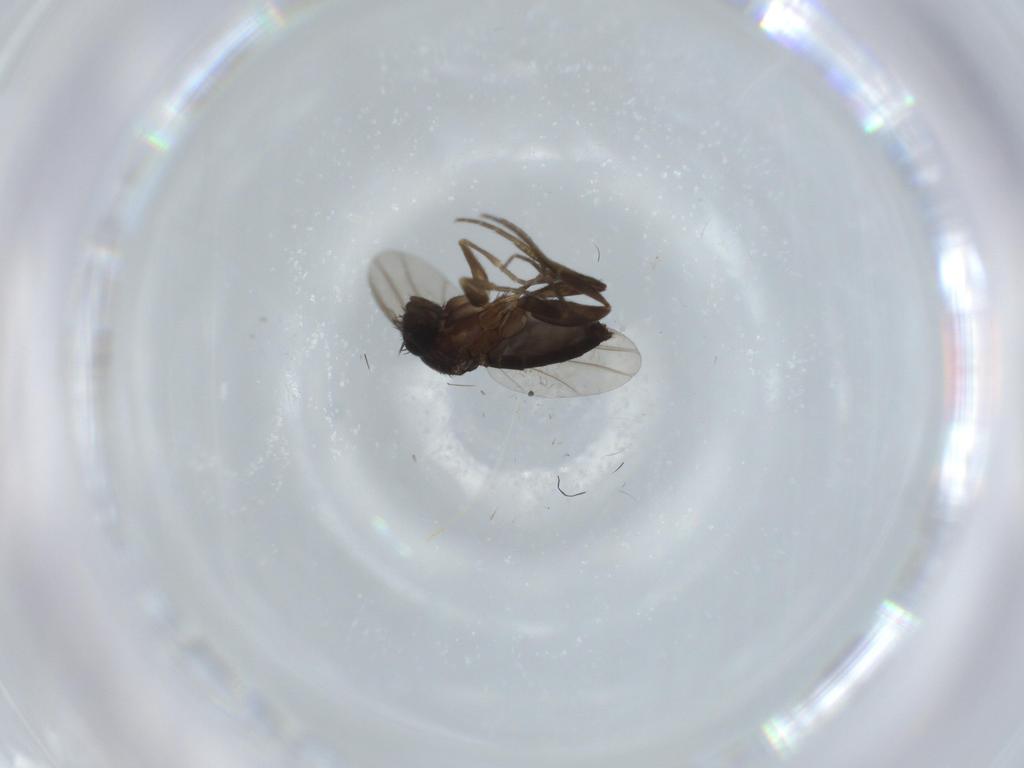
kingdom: Animalia
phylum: Arthropoda
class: Insecta
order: Diptera
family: Phoridae
